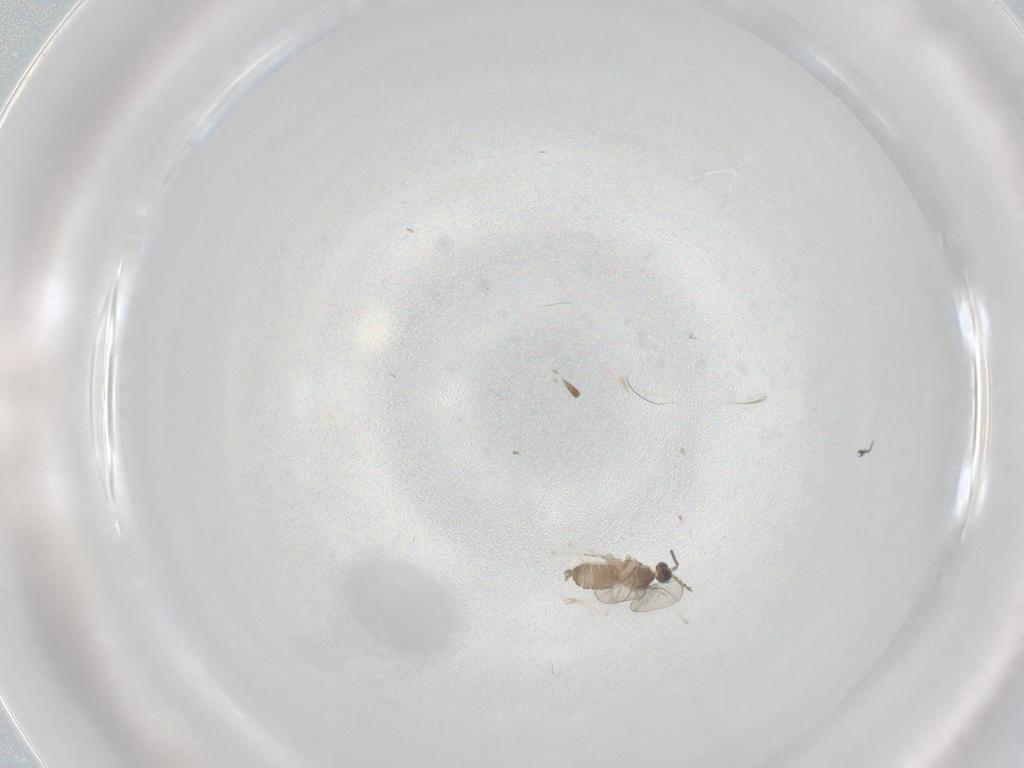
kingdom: Animalia
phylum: Arthropoda
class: Insecta
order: Diptera
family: Cecidomyiidae
